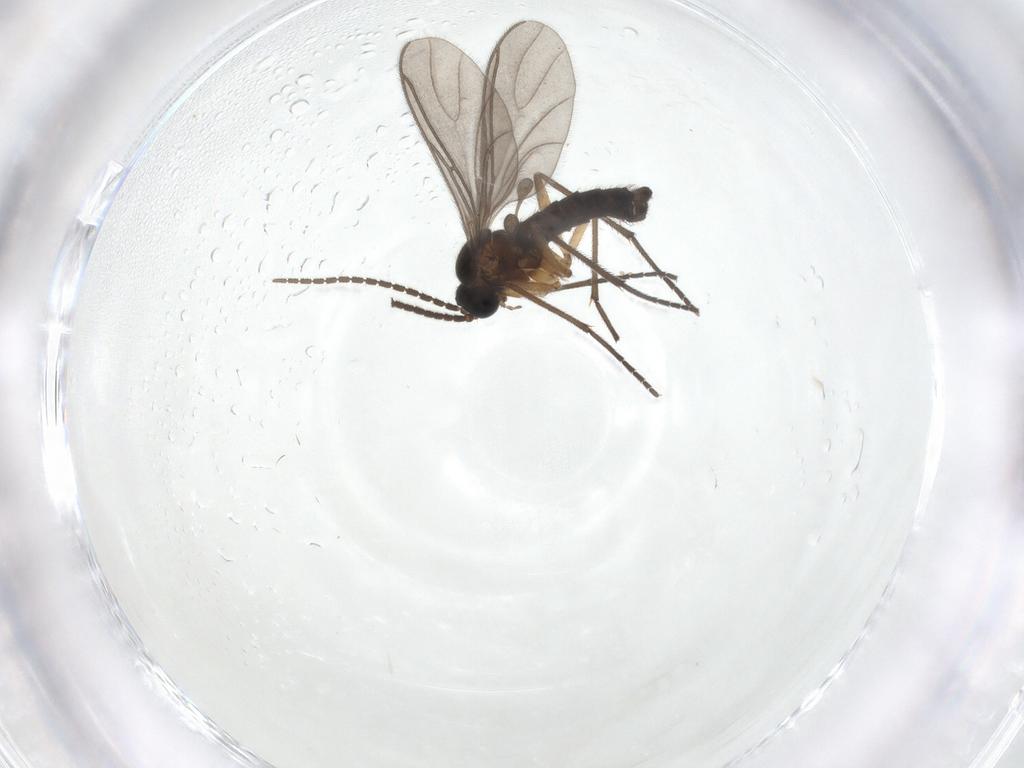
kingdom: Animalia
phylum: Arthropoda
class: Insecta
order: Diptera
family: Sciaridae
